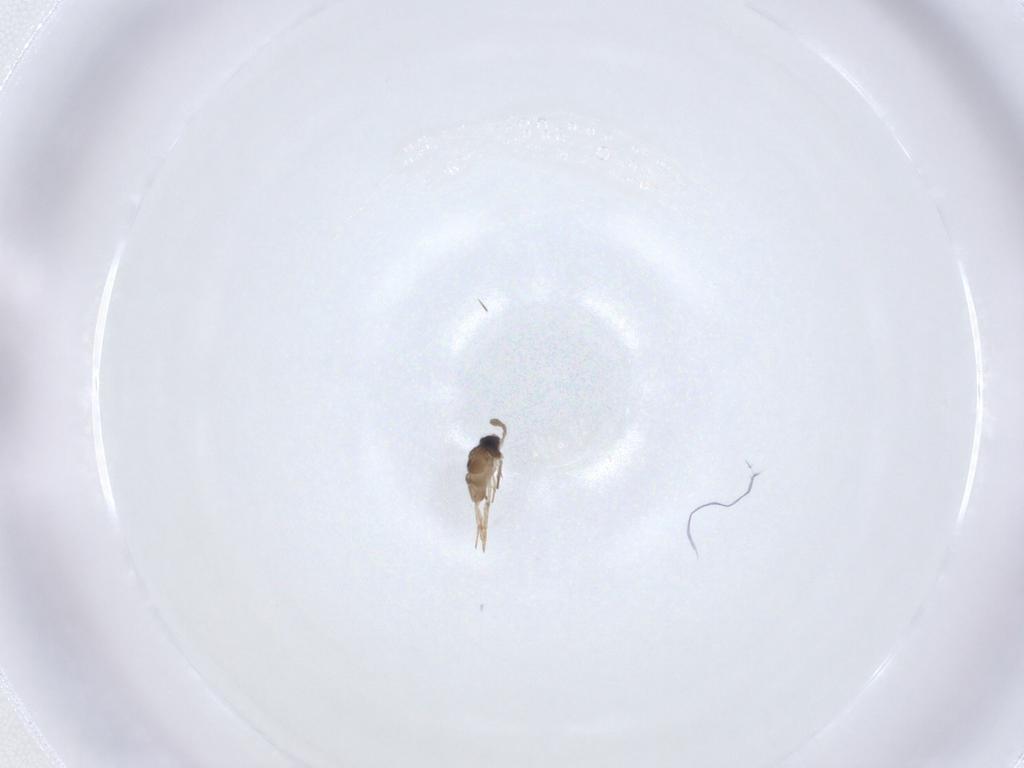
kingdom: Animalia
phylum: Arthropoda
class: Insecta
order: Hymenoptera
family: Encyrtidae
